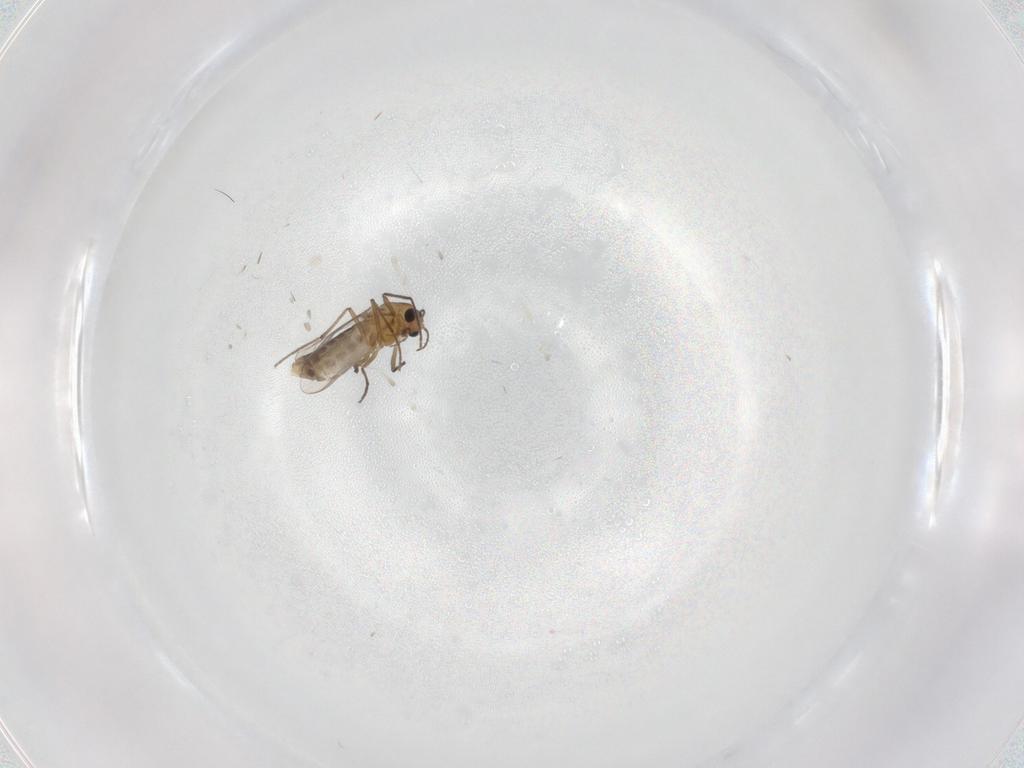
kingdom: Animalia
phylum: Arthropoda
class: Insecta
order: Diptera
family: Chironomidae
